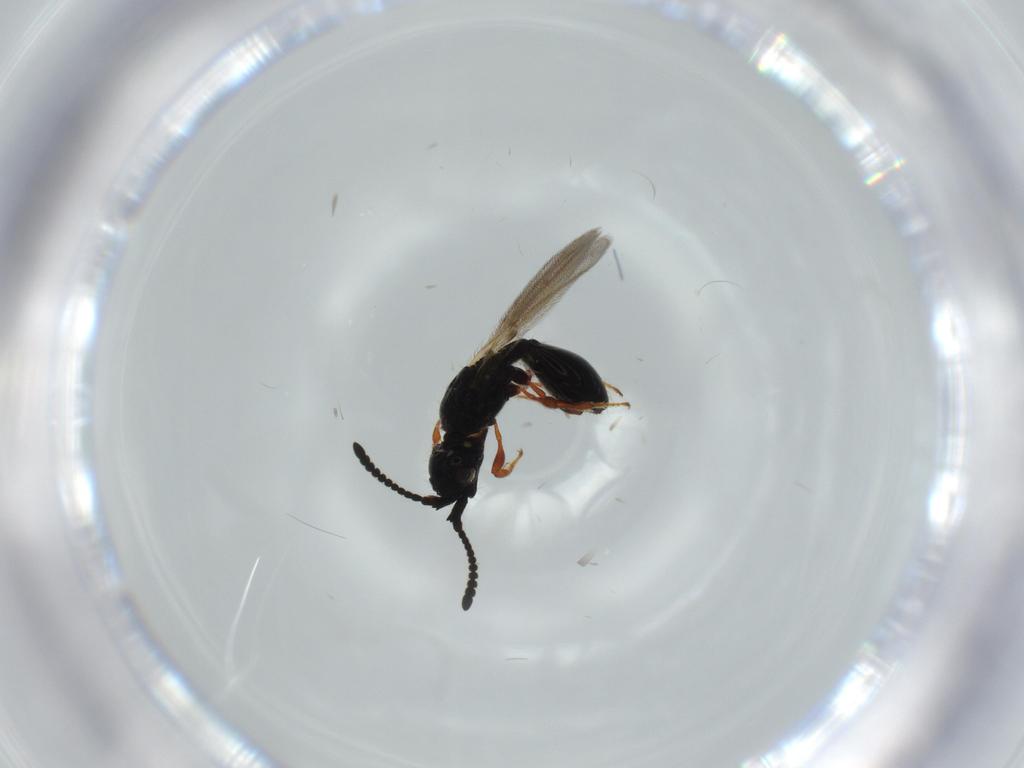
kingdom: Animalia
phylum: Arthropoda
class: Insecta
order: Hymenoptera
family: Diapriidae
